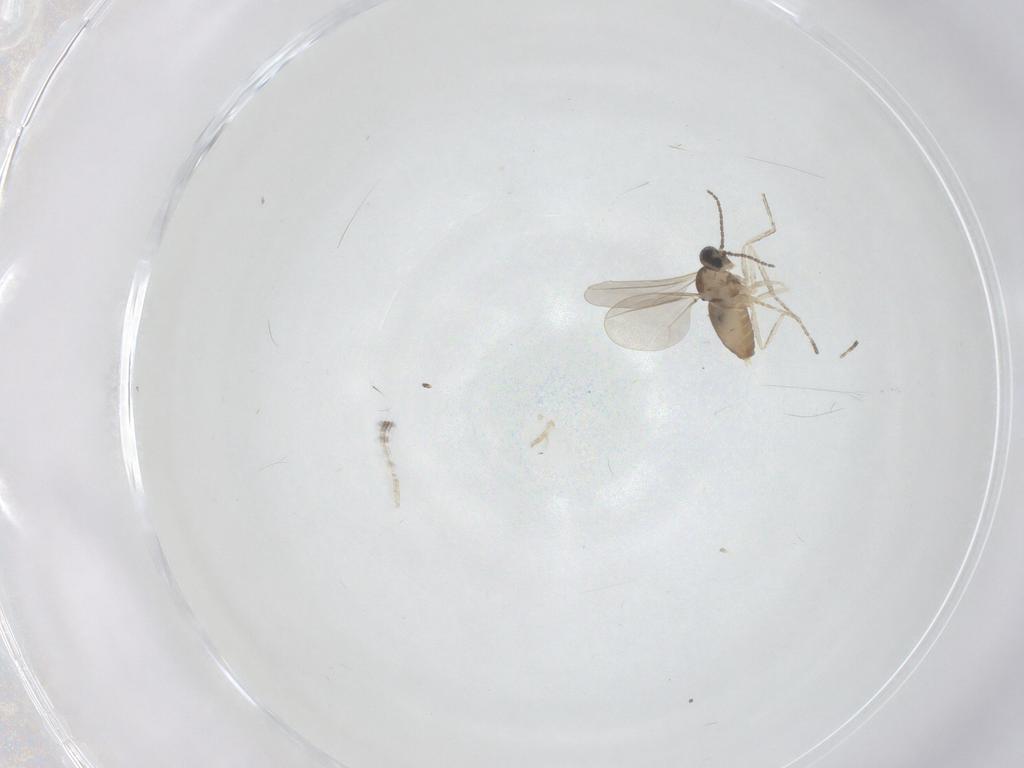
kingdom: Animalia
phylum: Arthropoda
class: Insecta
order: Diptera
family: Cecidomyiidae
